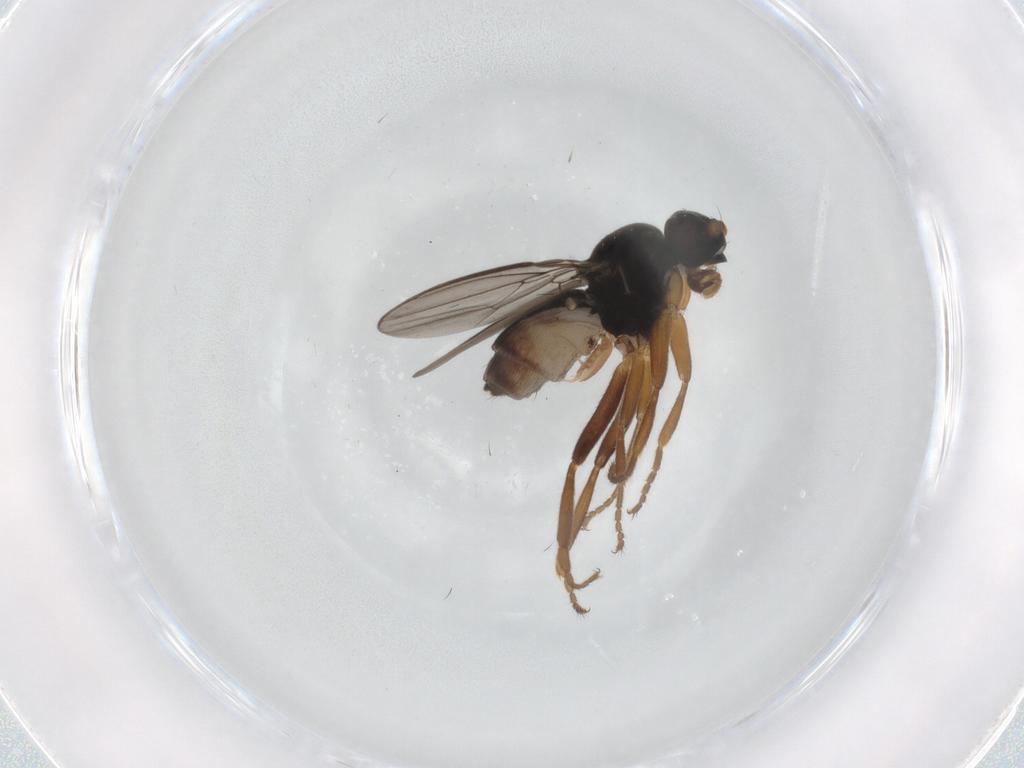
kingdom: Animalia
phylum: Arthropoda
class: Insecta
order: Diptera
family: Sphaeroceridae
